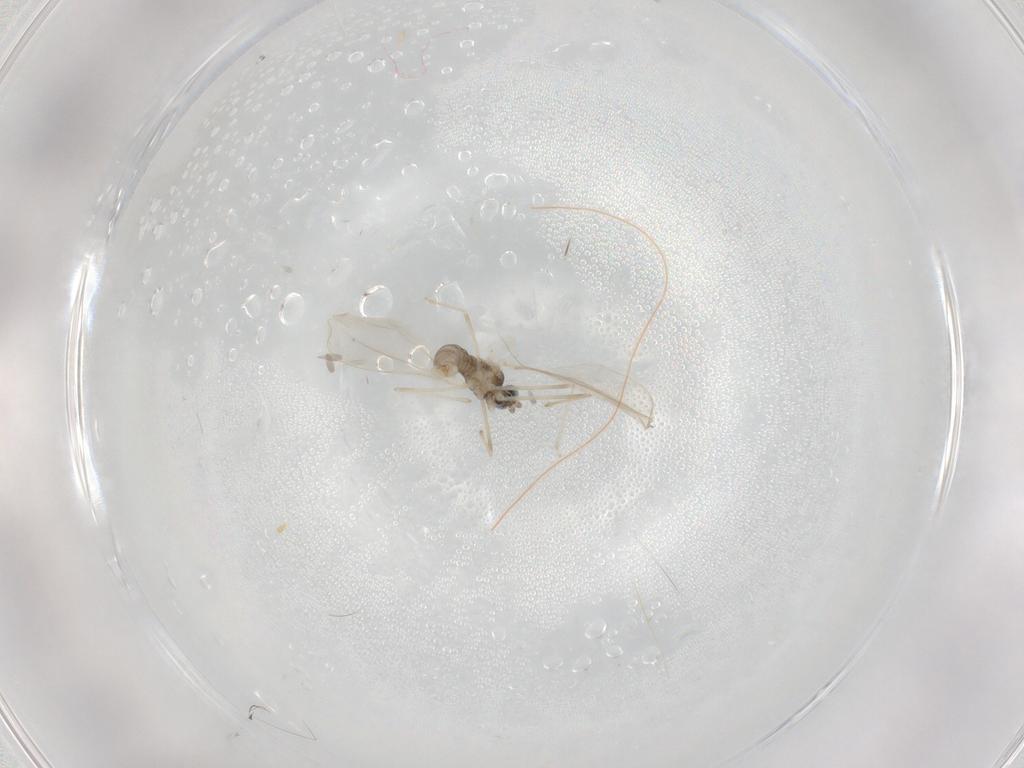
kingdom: Animalia
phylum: Arthropoda
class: Insecta
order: Diptera
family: Cecidomyiidae
